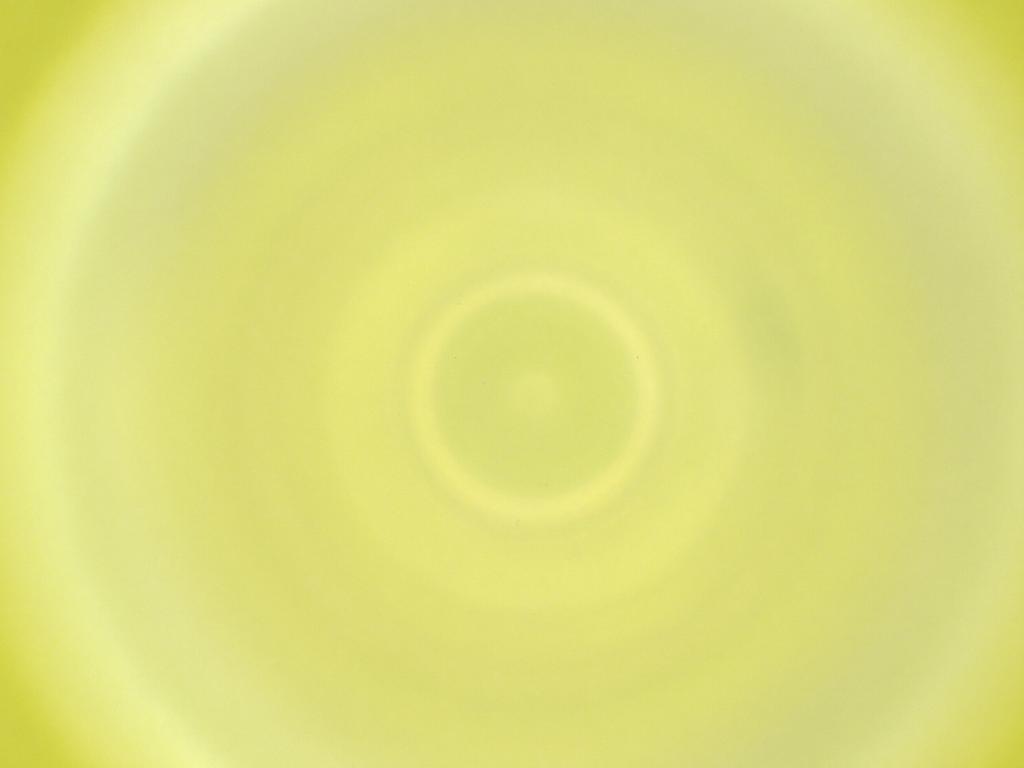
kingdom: Animalia
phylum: Arthropoda
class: Insecta
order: Diptera
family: Cecidomyiidae
